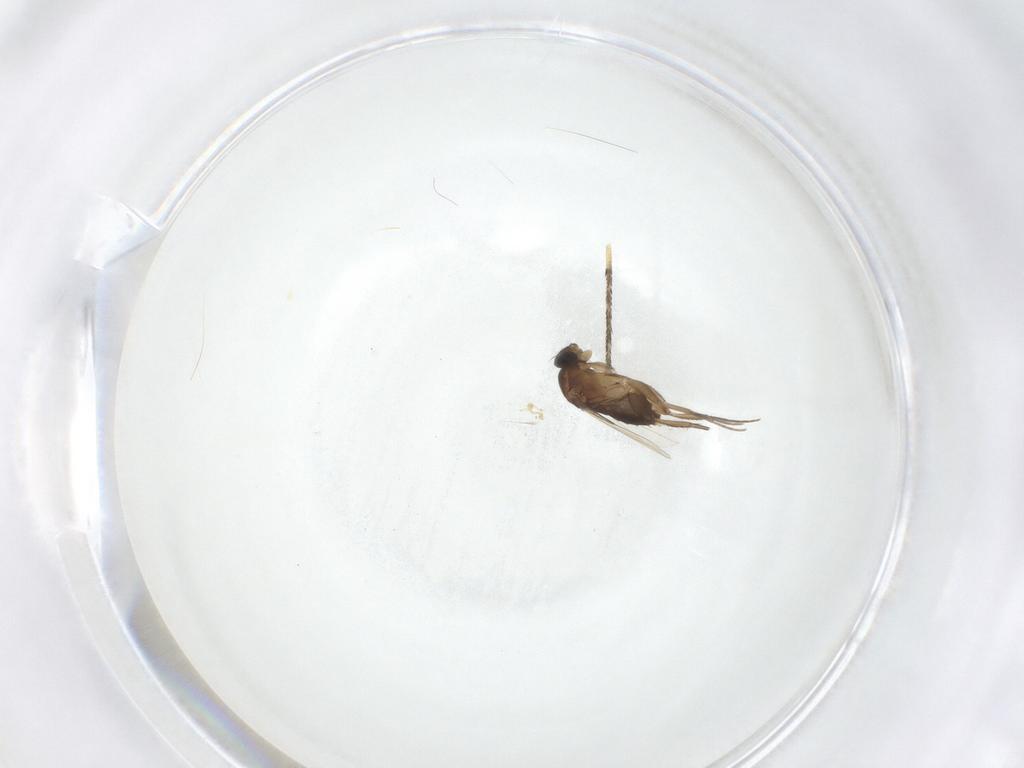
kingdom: Animalia
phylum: Arthropoda
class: Insecta
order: Diptera
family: Phoridae
